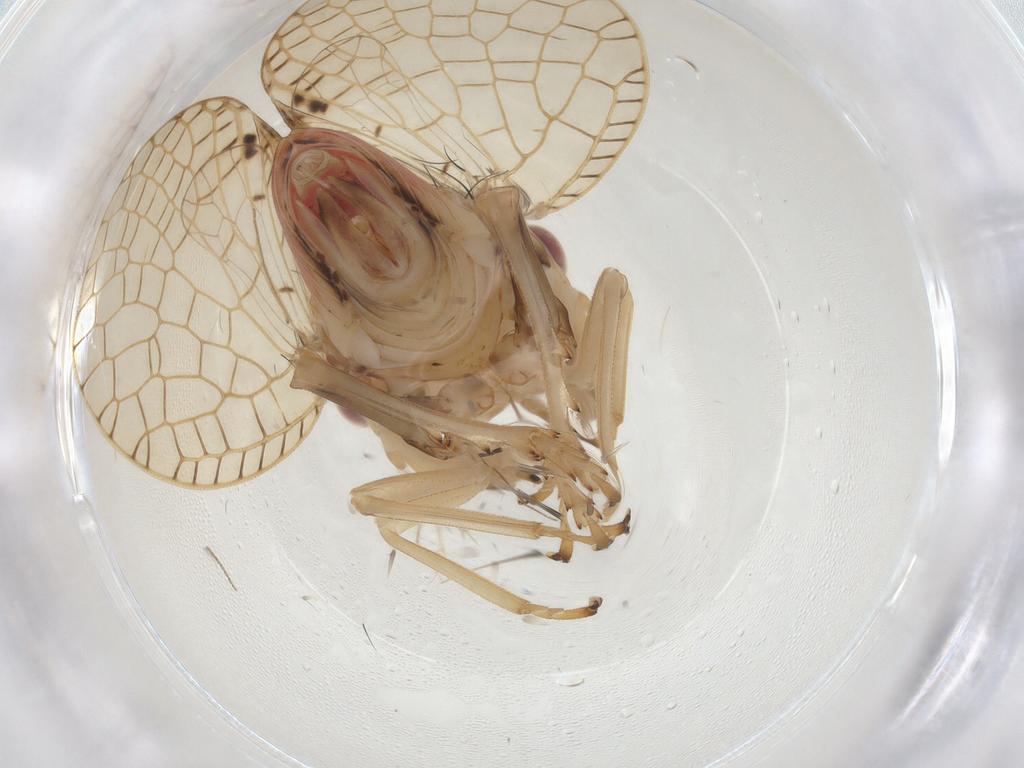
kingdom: Animalia
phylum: Arthropoda
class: Insecta
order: Hemiptera
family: Tropiduchidae
